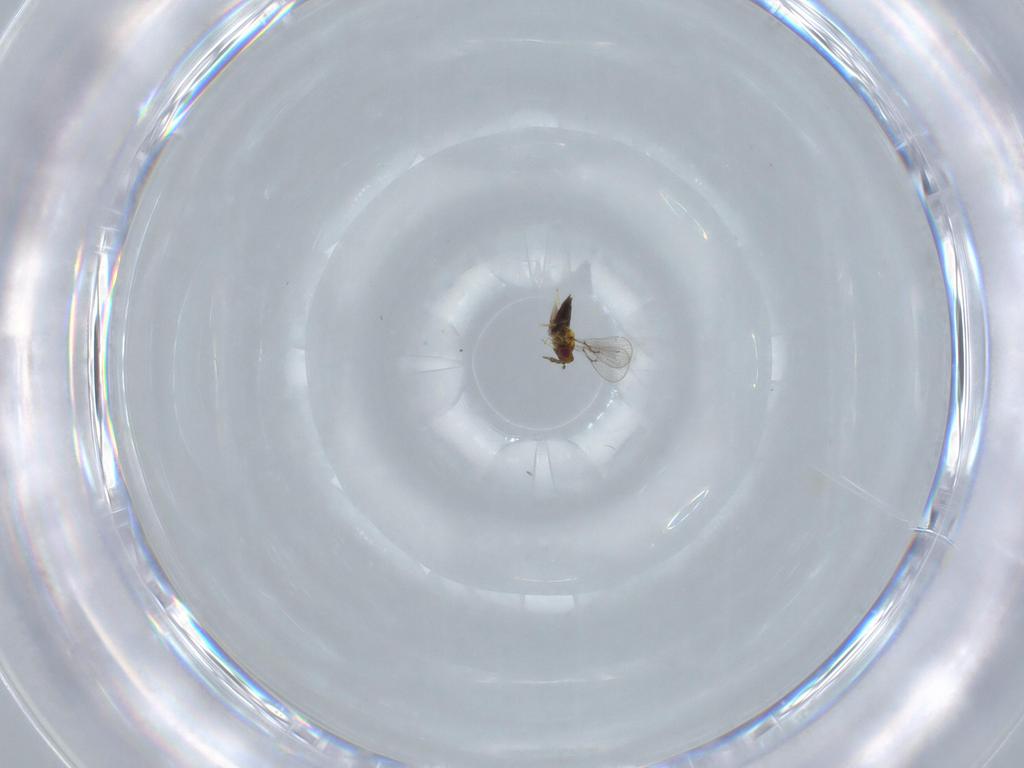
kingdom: Animalia
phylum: Arthropoda
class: Insecta
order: Hymenoptera
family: Trichogrammatidae
